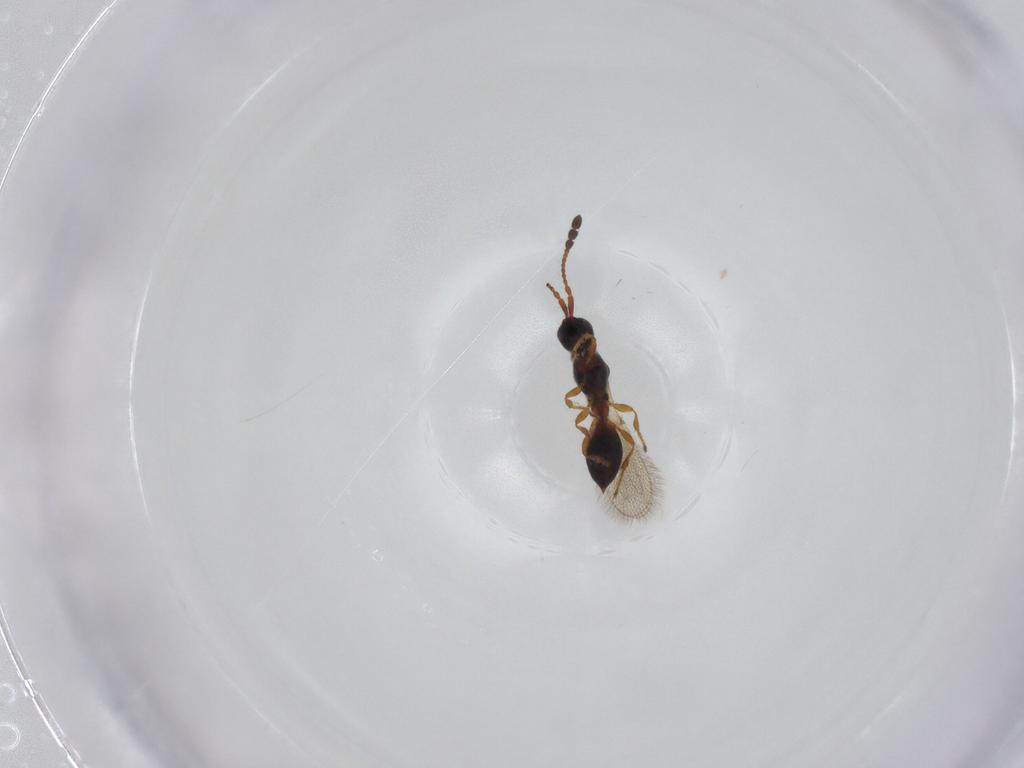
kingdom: Animalia
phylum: Arthropoda
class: Insecta
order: Hymenoptera
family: Diapriidae
